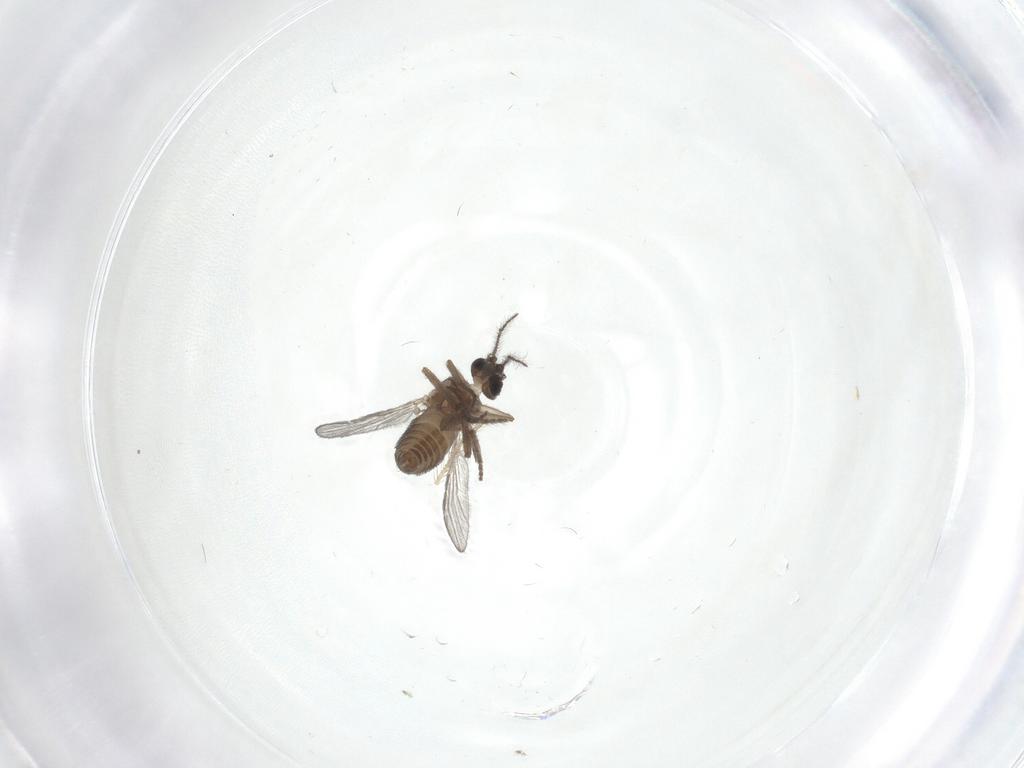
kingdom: Animalia
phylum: Arthropoda
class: Insecta
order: Diptera
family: Ceratopogonidae
